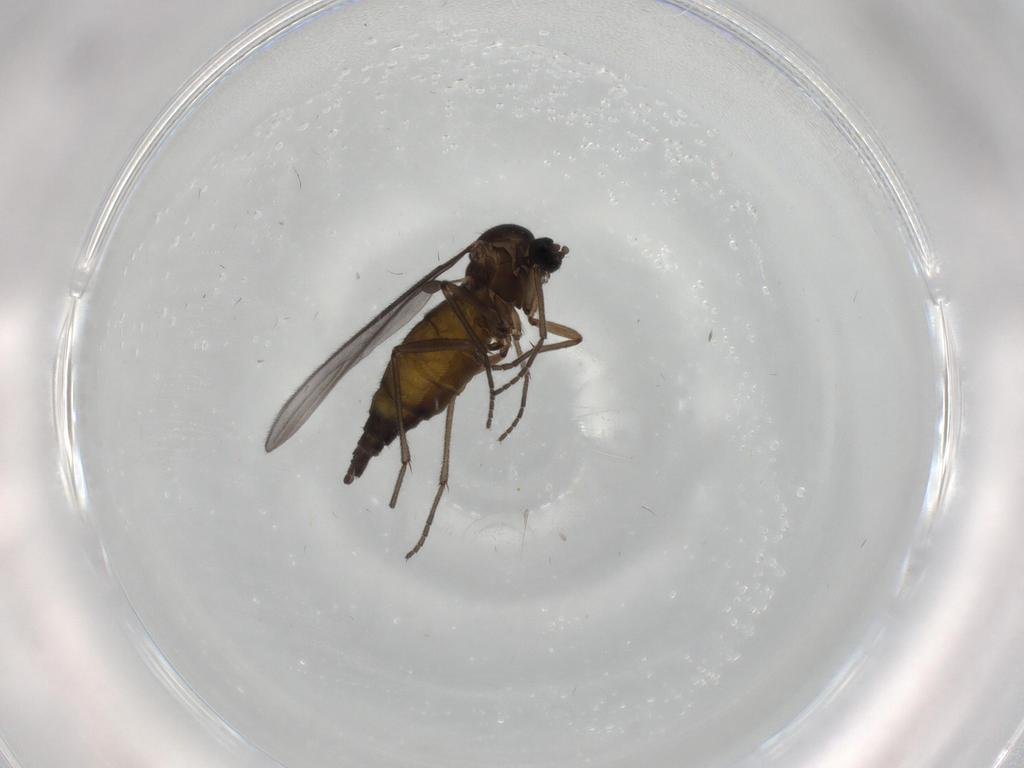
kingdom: Animalia
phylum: Arthropoda
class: Insecta
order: Diptera
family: Sciaridae
